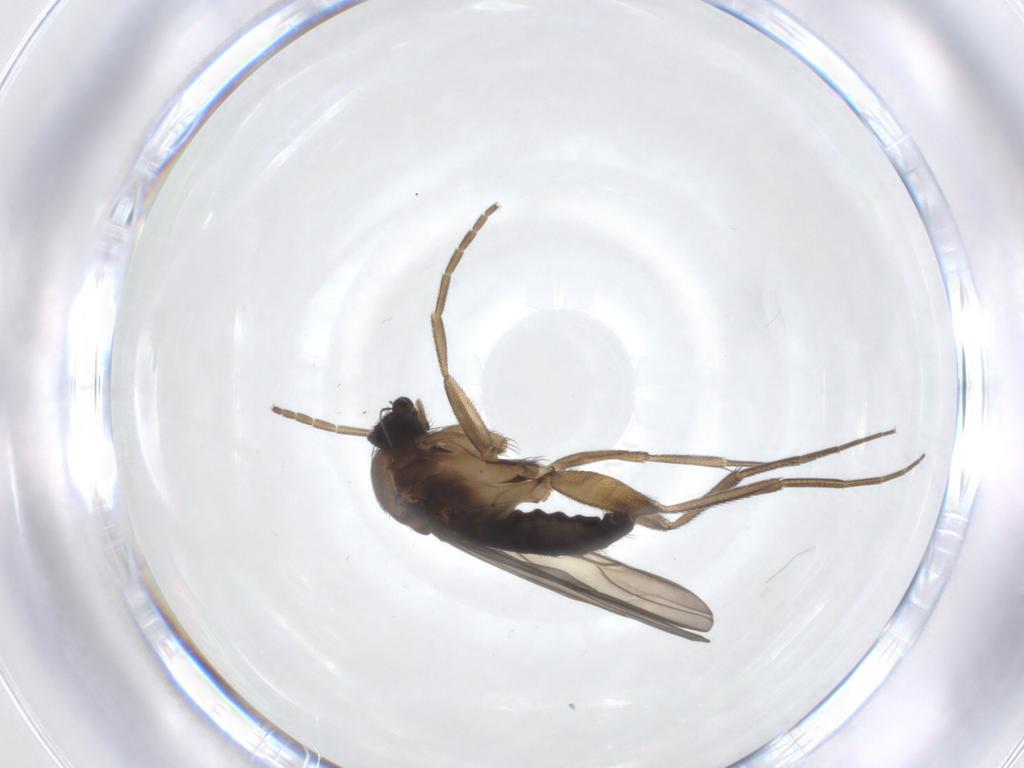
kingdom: Animalia
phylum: Arthropoda
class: Insecta
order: Diptera
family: Phoridae
